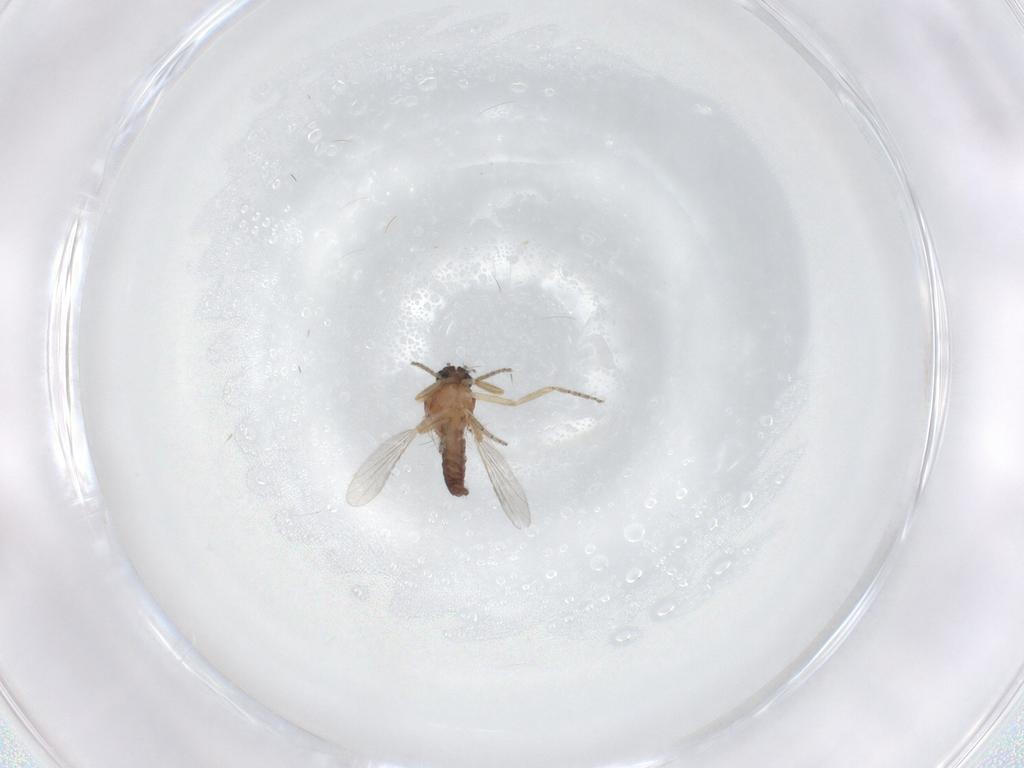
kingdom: Animalia
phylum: Arthropoda
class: Insecta
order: Diptera
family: Ceratopogonidae
